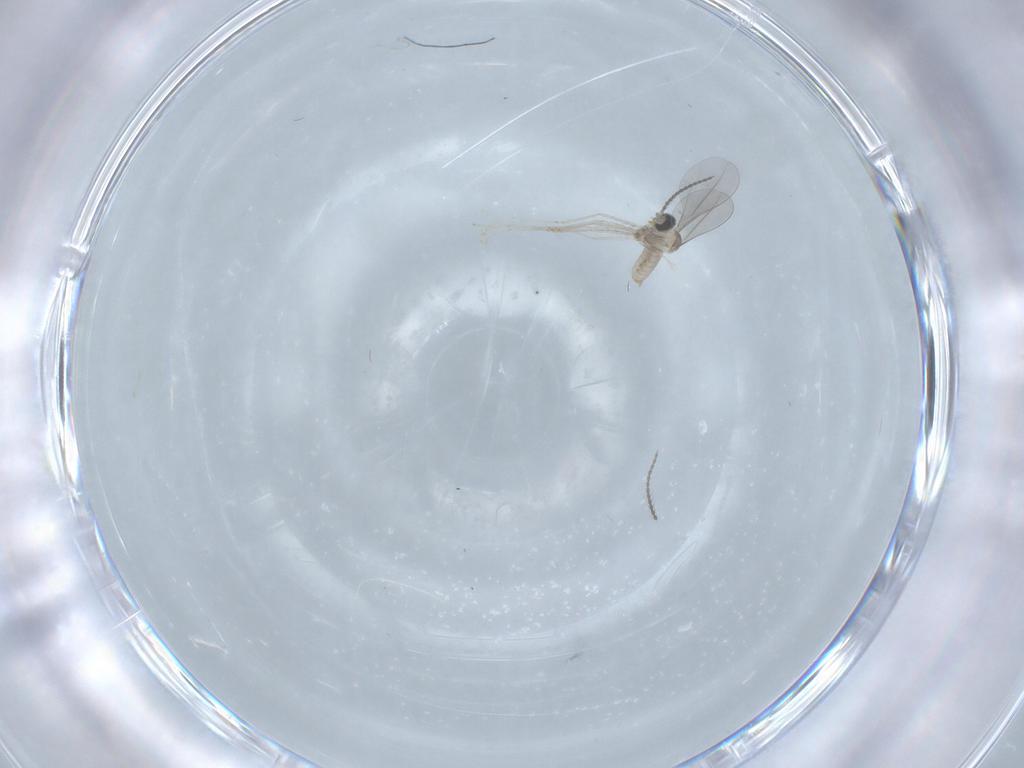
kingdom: Animalia
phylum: Arthropoda
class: Insecta
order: Diptera
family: Cecidomyiidae
